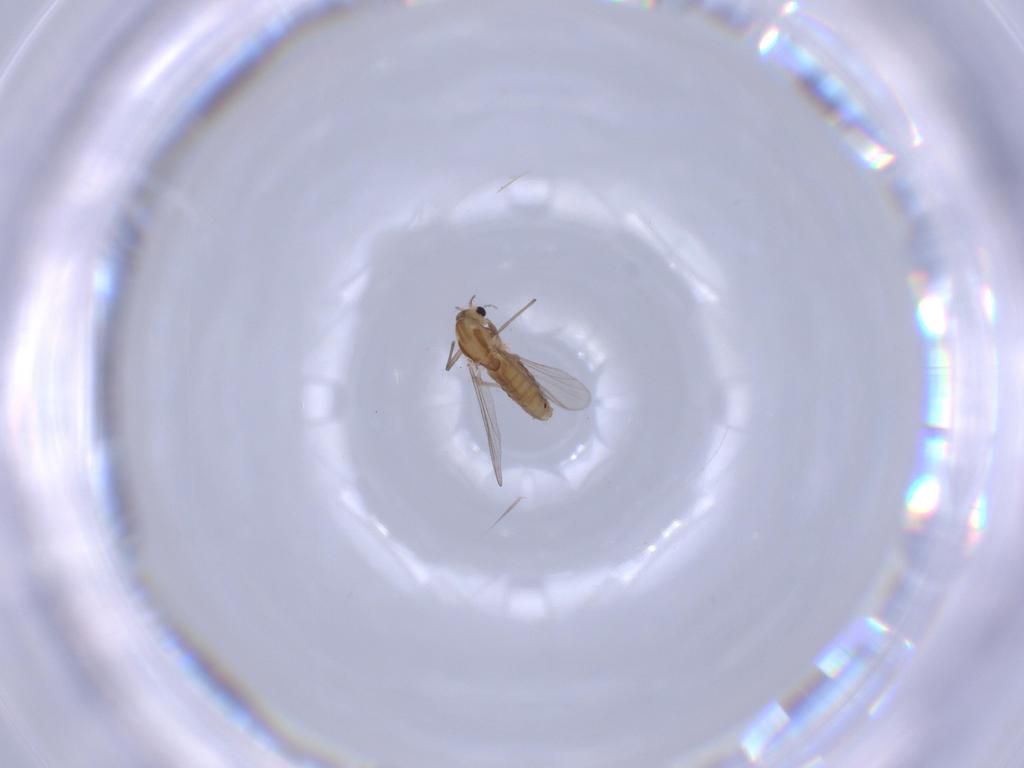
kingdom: Animalia
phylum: Arthropoda
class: Insecta
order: Diptera
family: Chironomidae
